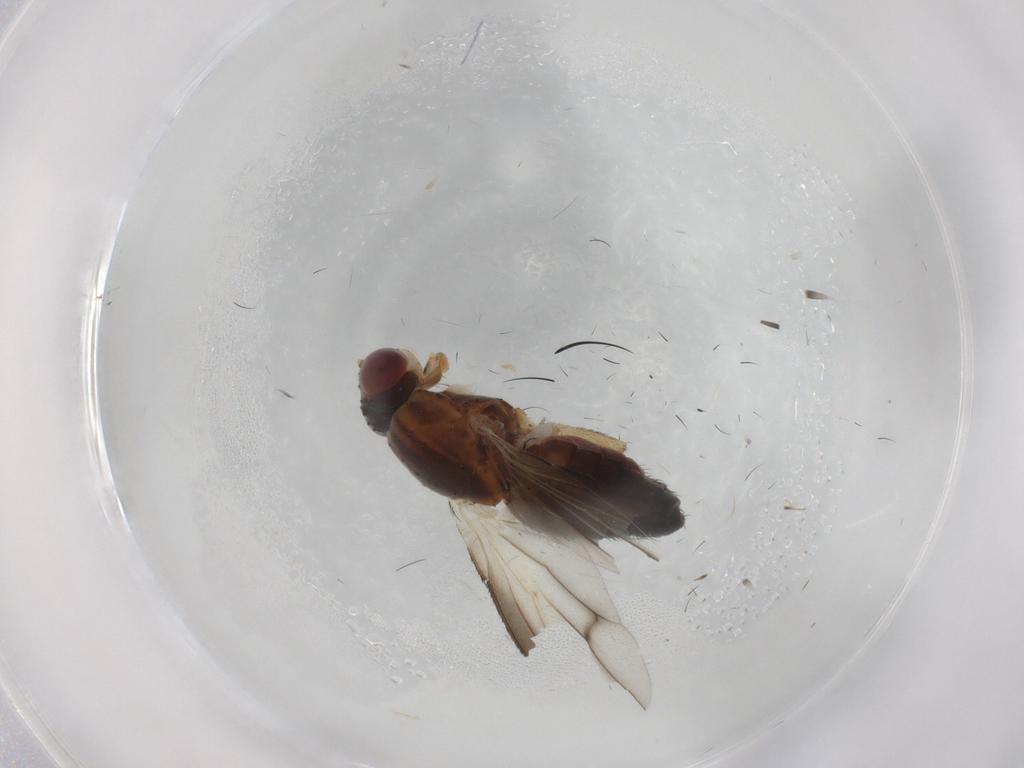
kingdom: Animalia
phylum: Arthropoda
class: Insecta
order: Diptera
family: Heleomyzidae
